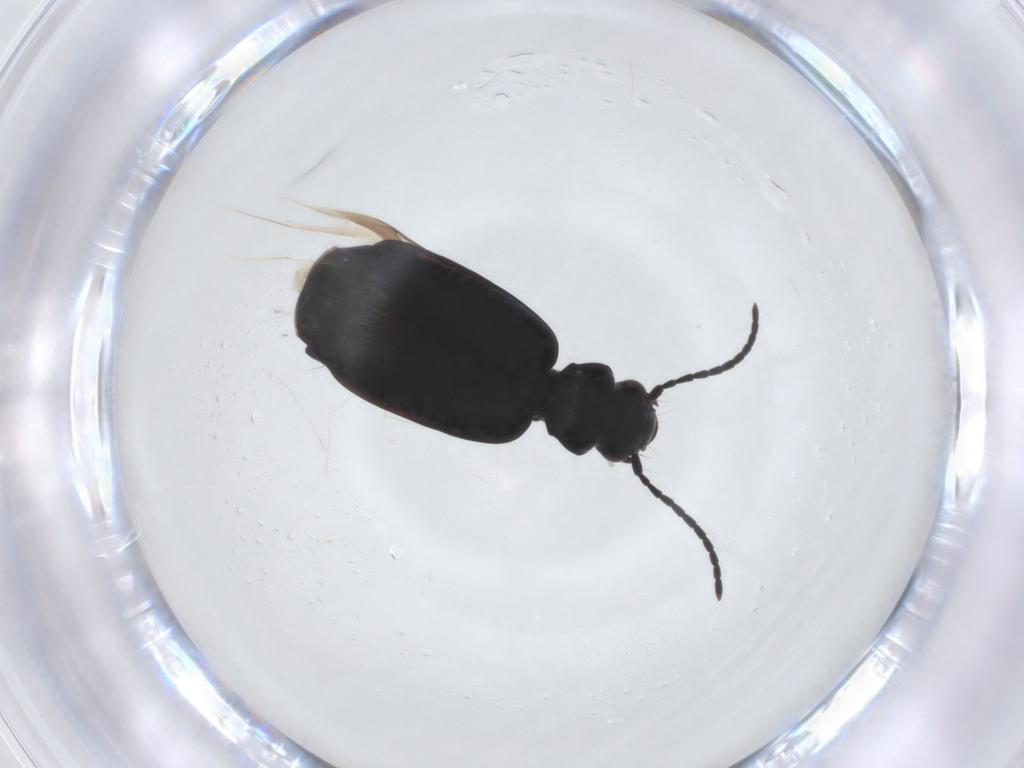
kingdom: Animalia
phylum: Arthropoda
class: Insecta
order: Coleoptera
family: Carabidae
